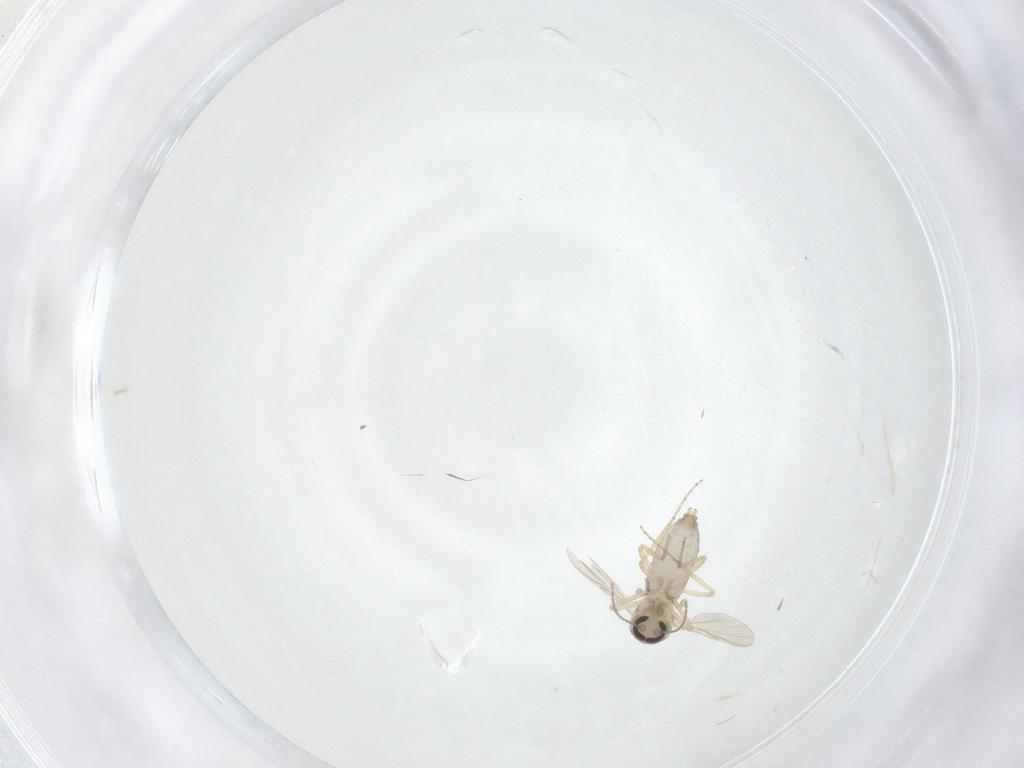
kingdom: Animalia
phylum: Arthropoda
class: Insecta
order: Diptera
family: Ceratopogonidae
